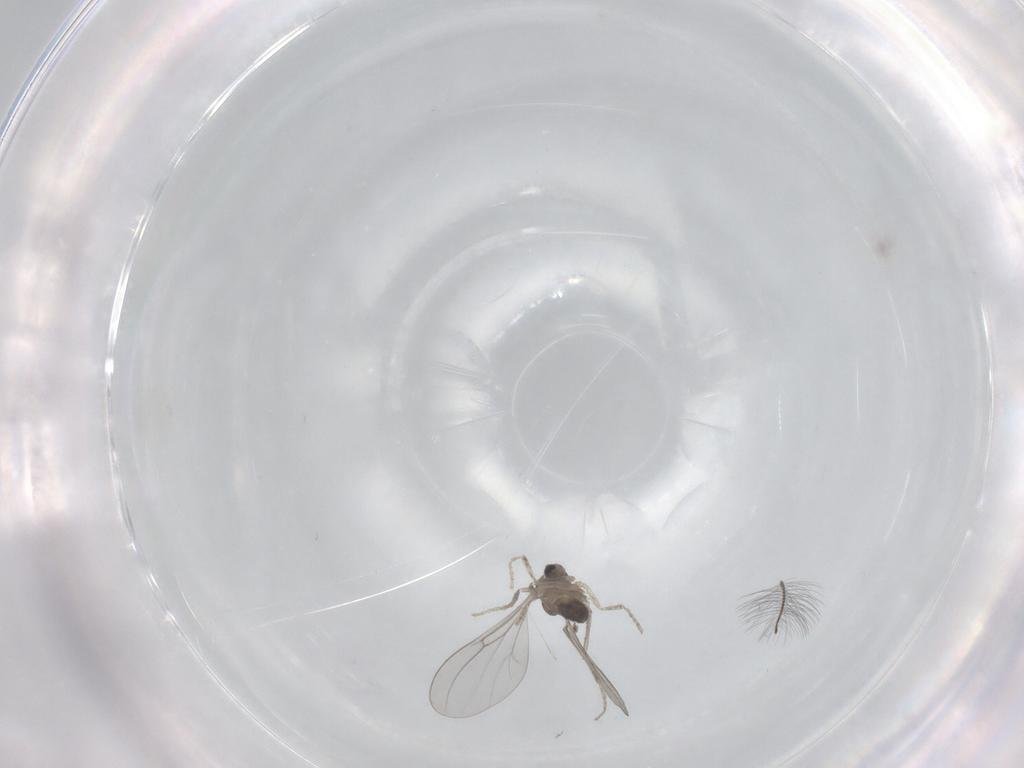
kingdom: Animalia
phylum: Arthropoda
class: Insecta
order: Diptera
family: Cecidomyiidae
